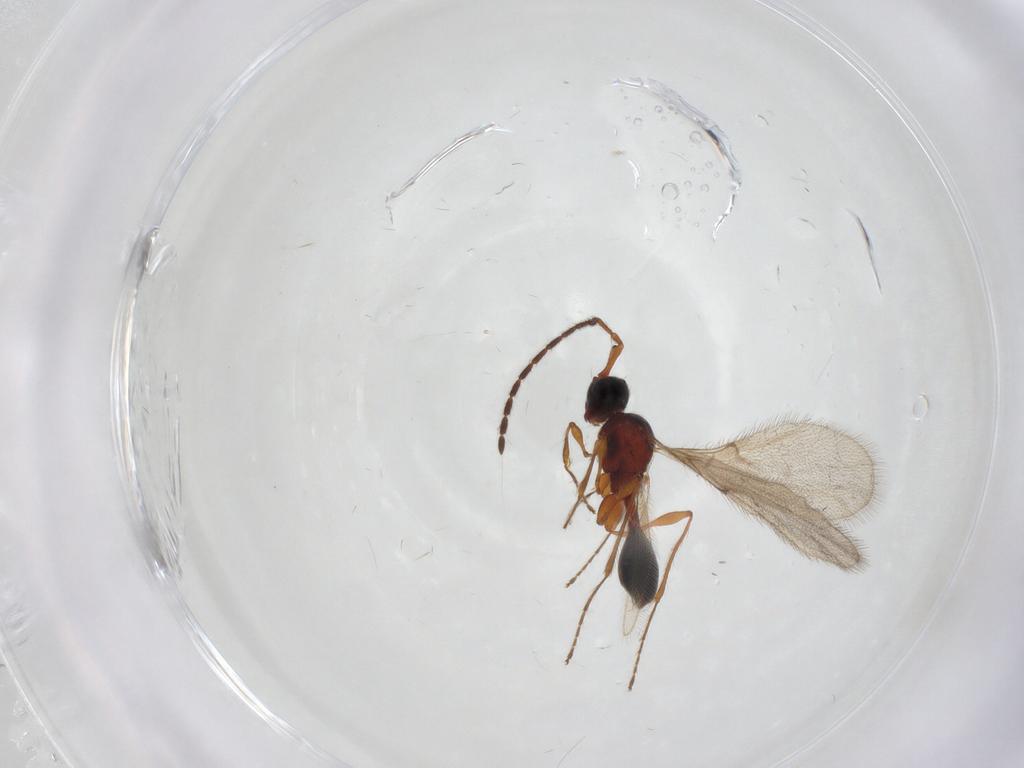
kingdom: Animalia
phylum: Arthropoda
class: Insecta
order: Hymenoptera
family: Diapriidae
